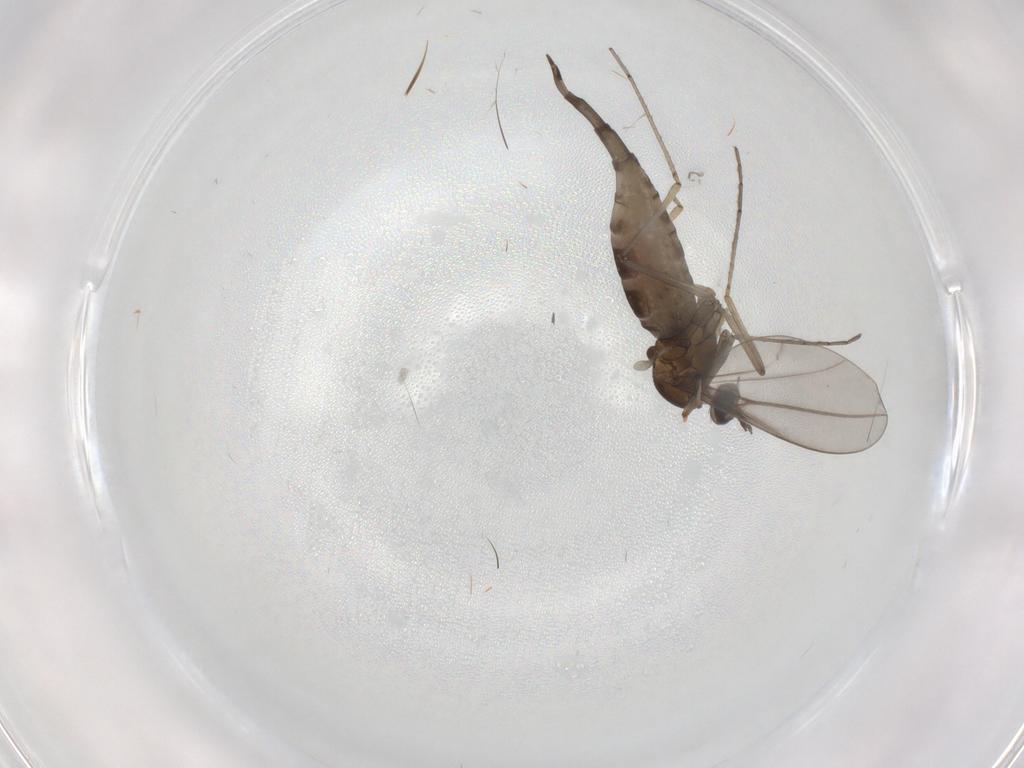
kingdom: Animalia
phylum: Arthropoda
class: Insecta
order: Diptera
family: Cecidomyiidae
